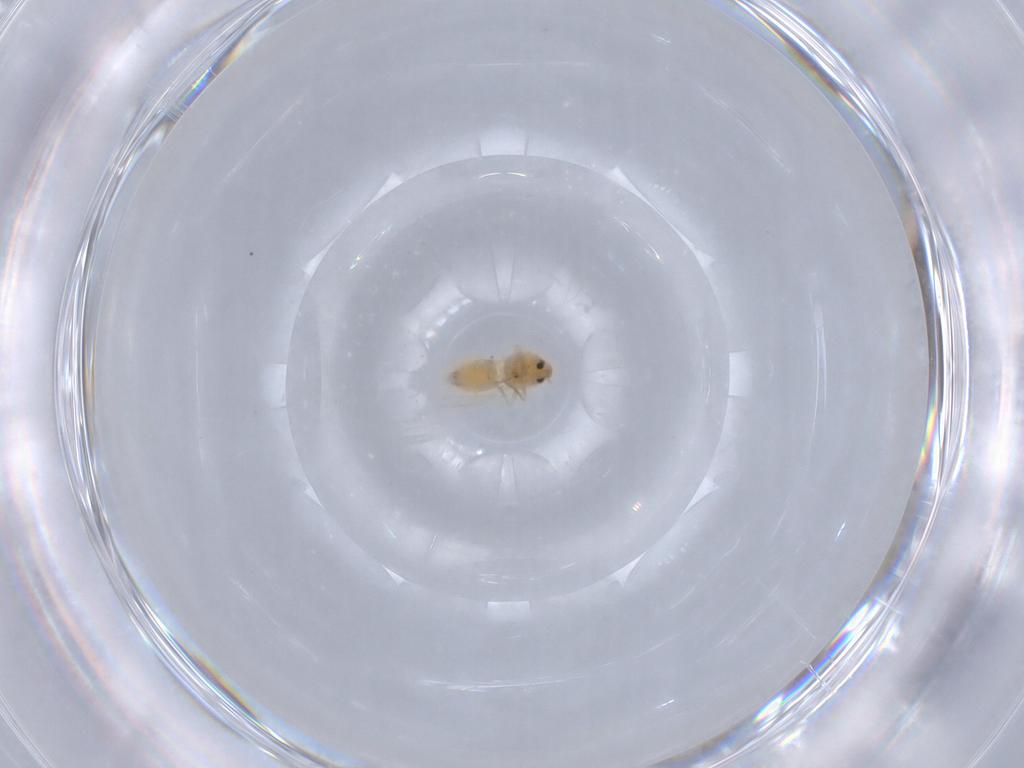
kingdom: Animalia
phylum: Arthropoda
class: Insecta
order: Hemiptera
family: Aleyrodidae
